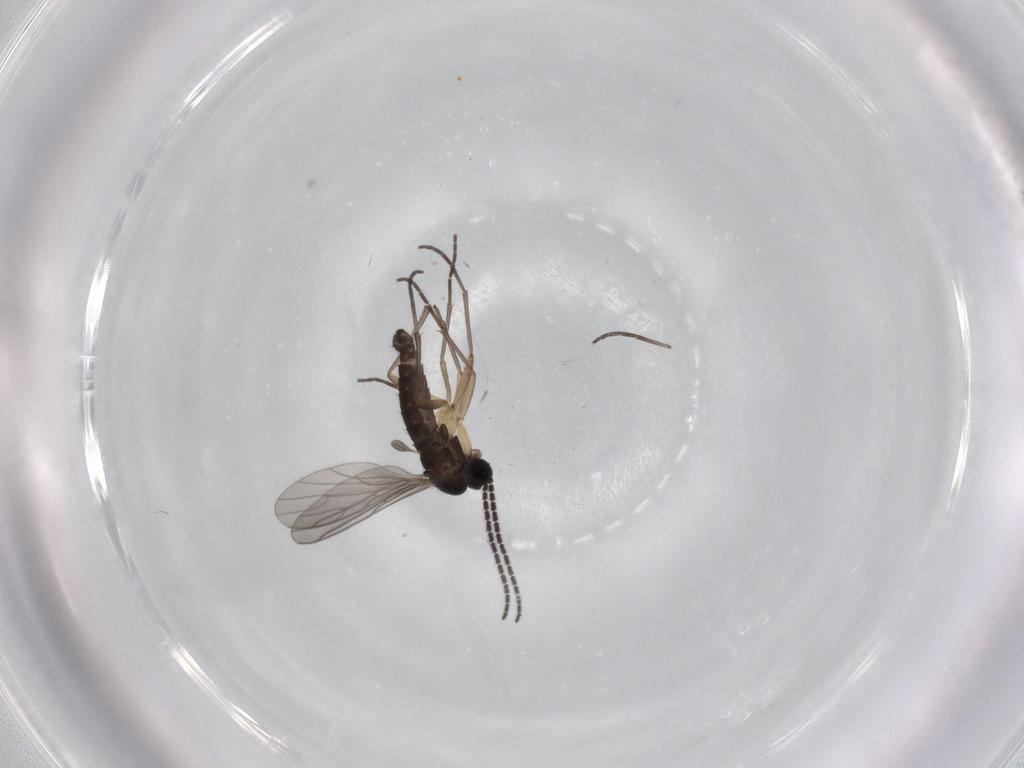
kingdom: Animalia
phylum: Arthropoda
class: Insecta
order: Diptera
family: Sciaridae
